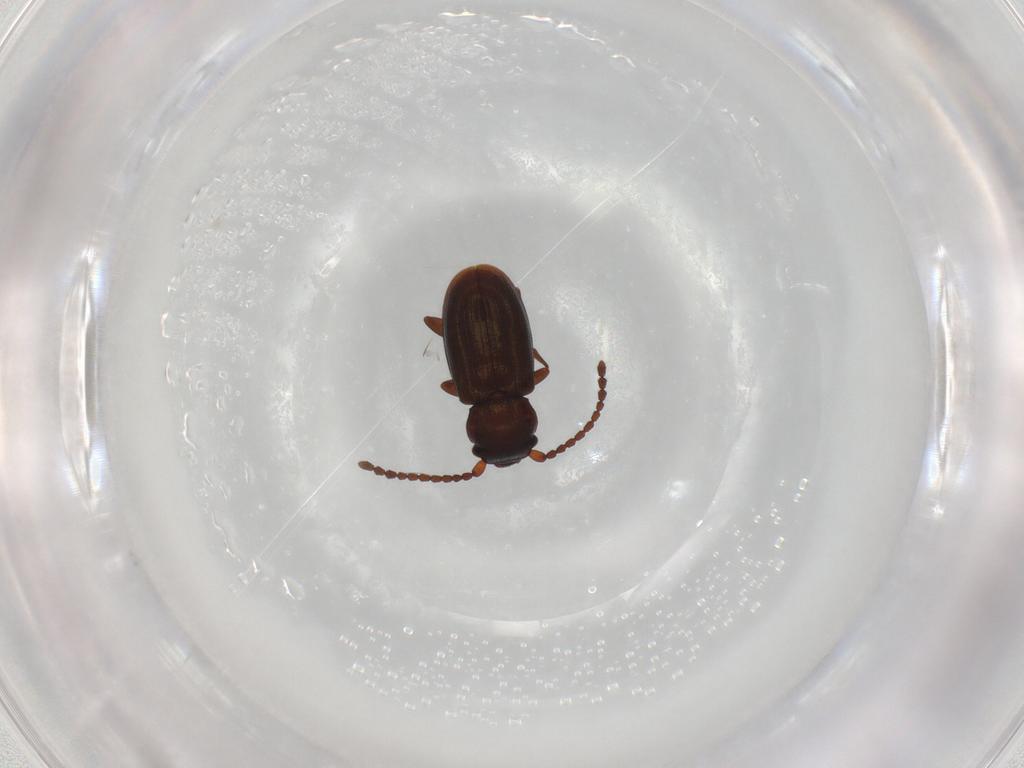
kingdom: Animalia
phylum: Arthropoda
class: Insecta
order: Coleoptera
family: Laemophloeidae
